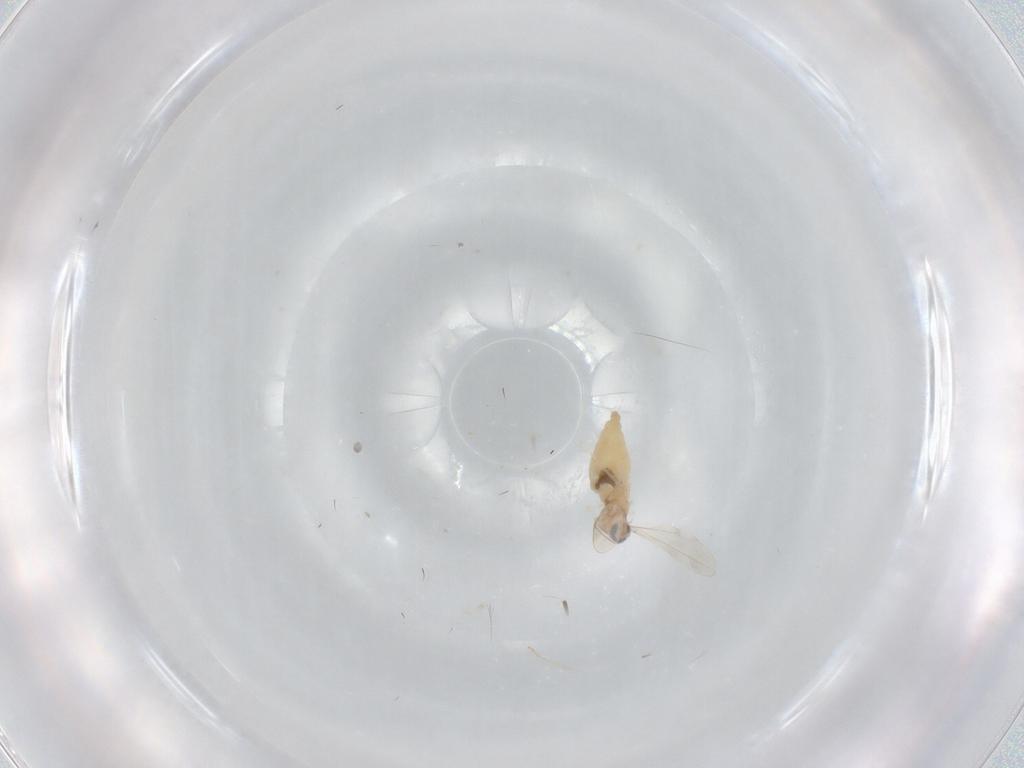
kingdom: Animalia
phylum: Arthropoda
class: Insecta
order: Diptera
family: Cecidomyiidae
